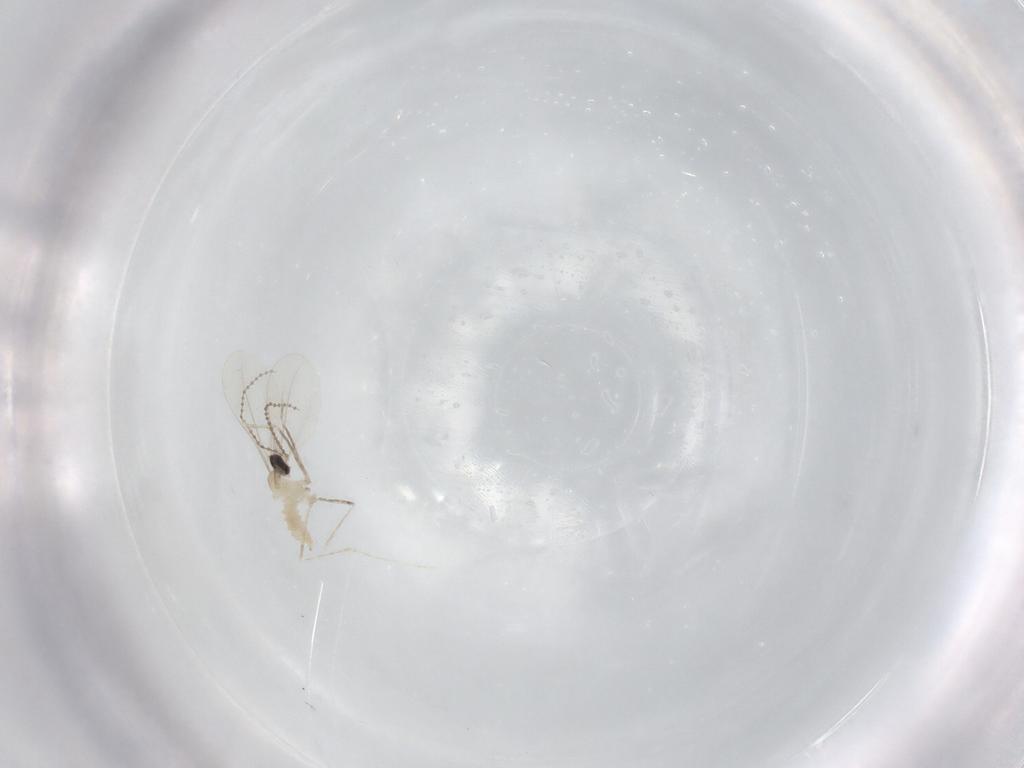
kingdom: Animalia
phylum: Arthropoda
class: Insecta
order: Diptera
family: Sciaridae
